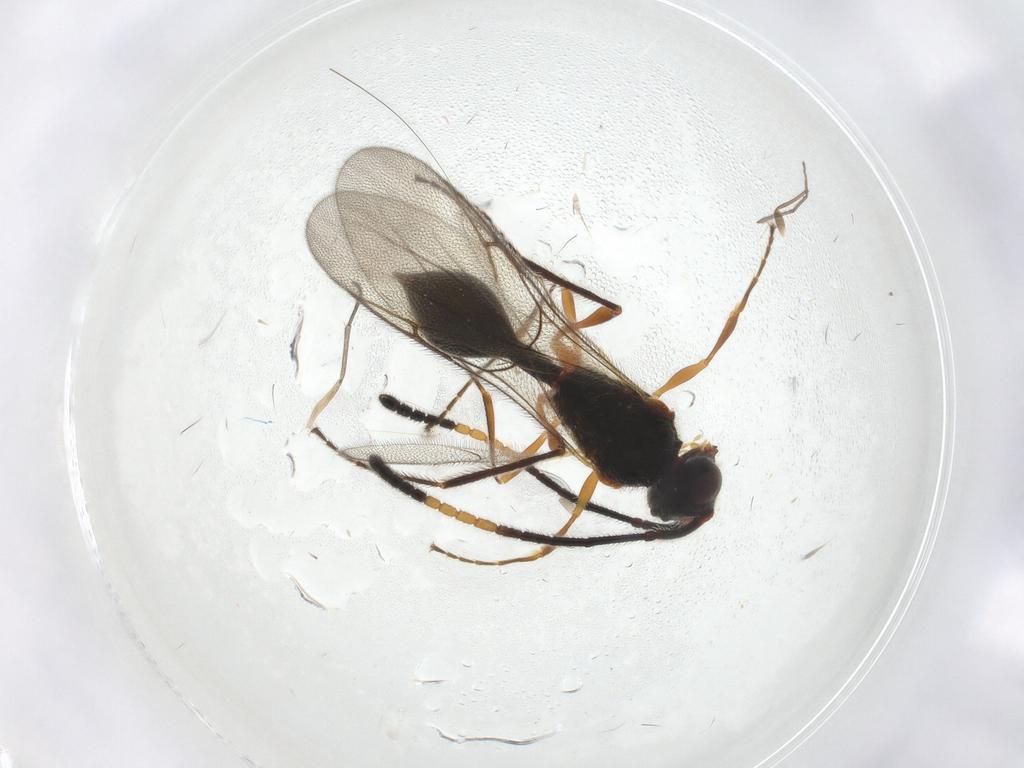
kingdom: Animalia
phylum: Arthropoda
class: Insecta
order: Hymenoptera
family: Diapriidae
